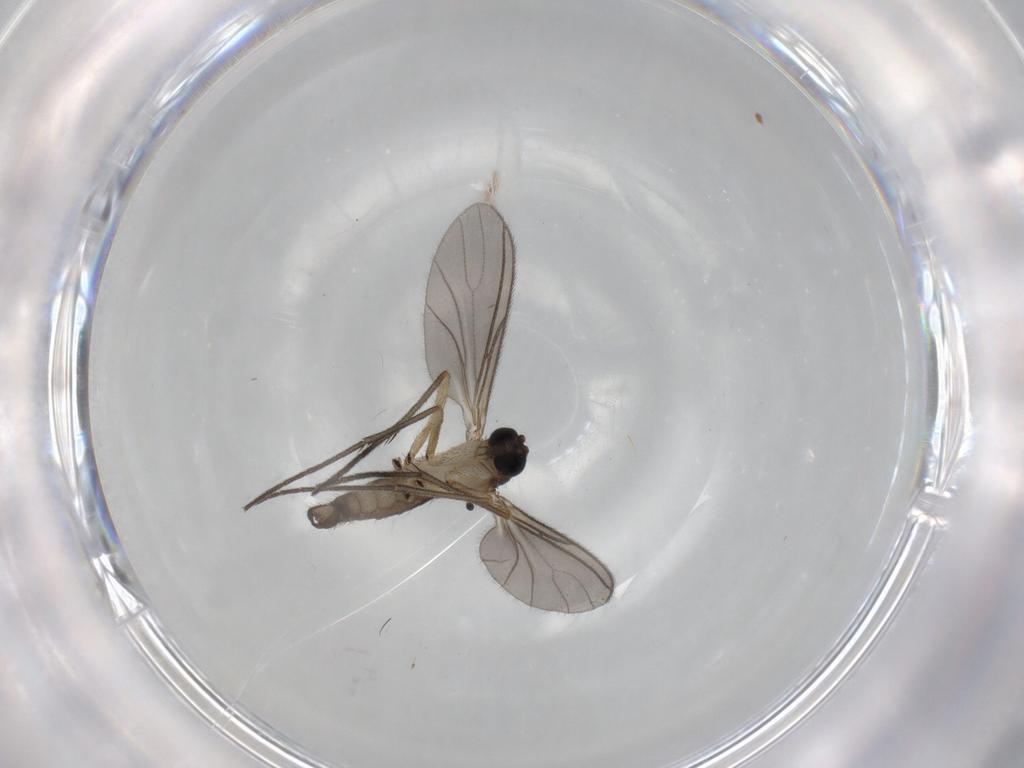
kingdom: Animalia
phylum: Arthropoda
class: Insecta
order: Diptera
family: Sciaridae
